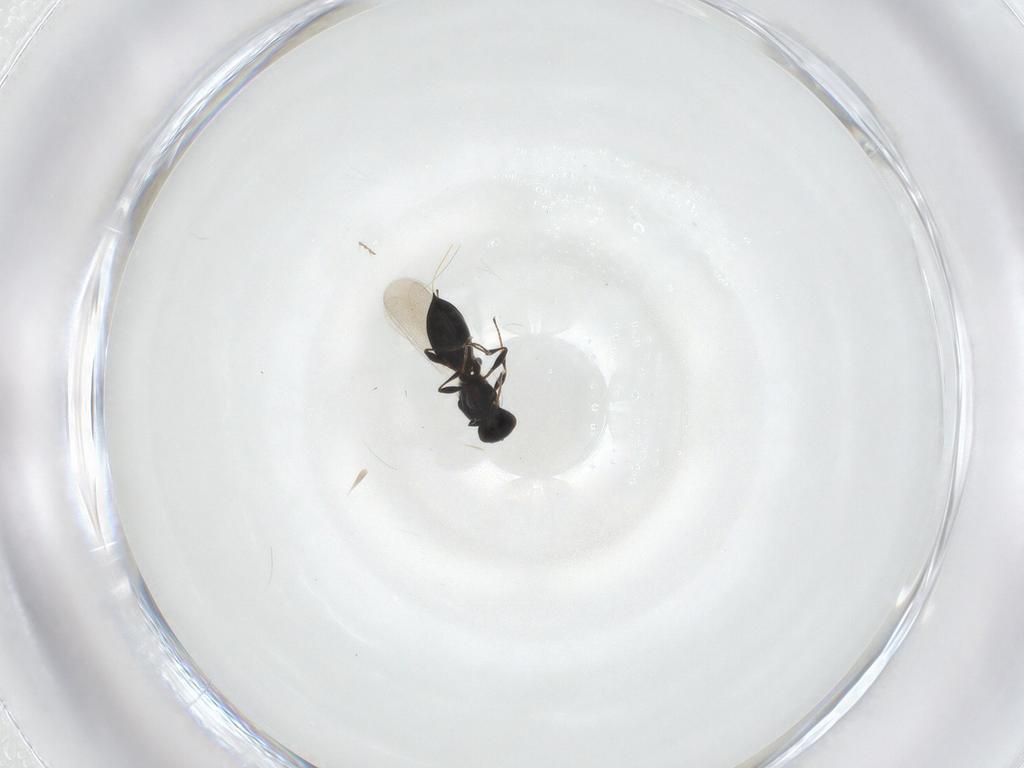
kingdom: Animalia
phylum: Arthropoda
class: Insecta
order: Hymenoptera
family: Platygastridae
